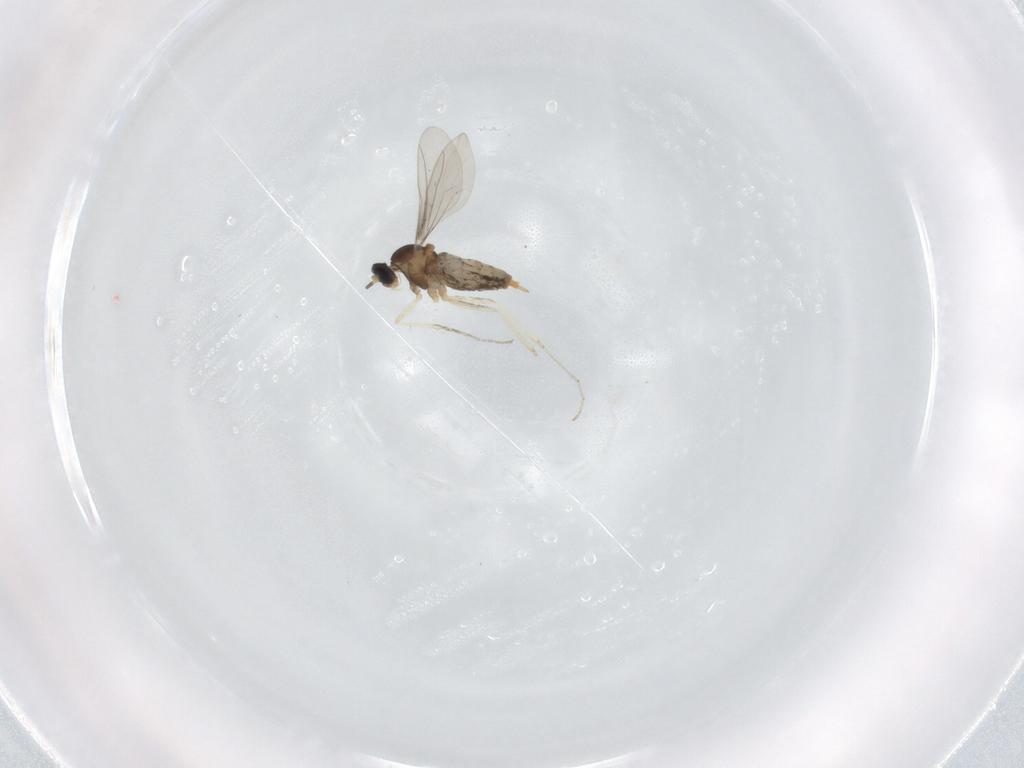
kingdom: Animalia
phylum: Arthropoda
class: Insecta
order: Diptera
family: Cecidomyiidae
